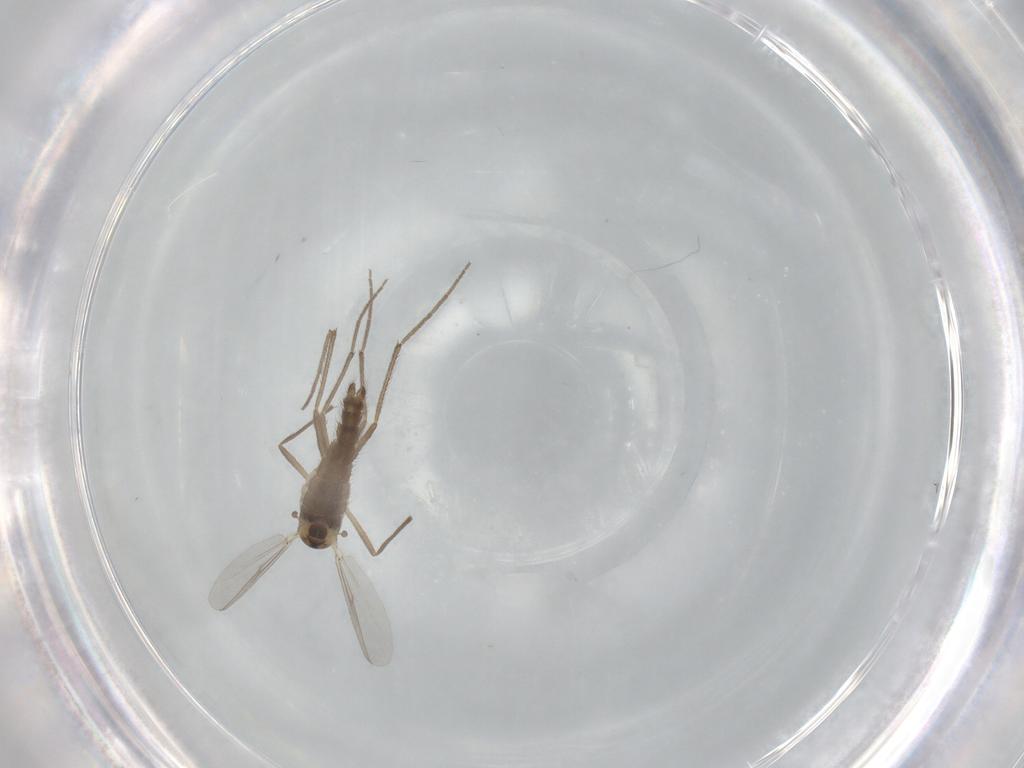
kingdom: Animalia
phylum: Arthropoda
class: Insecta
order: Diptera
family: Chironomidae
